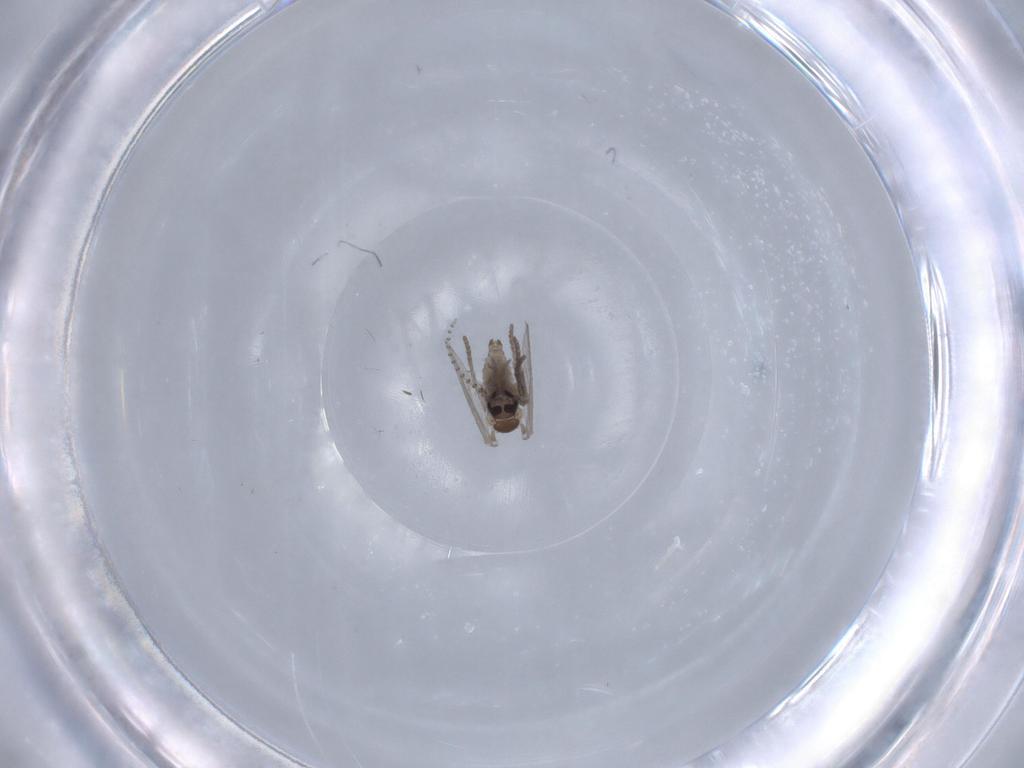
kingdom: Animalia
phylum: Arthropoda
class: Insecta
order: Diptera
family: Psychodidae
